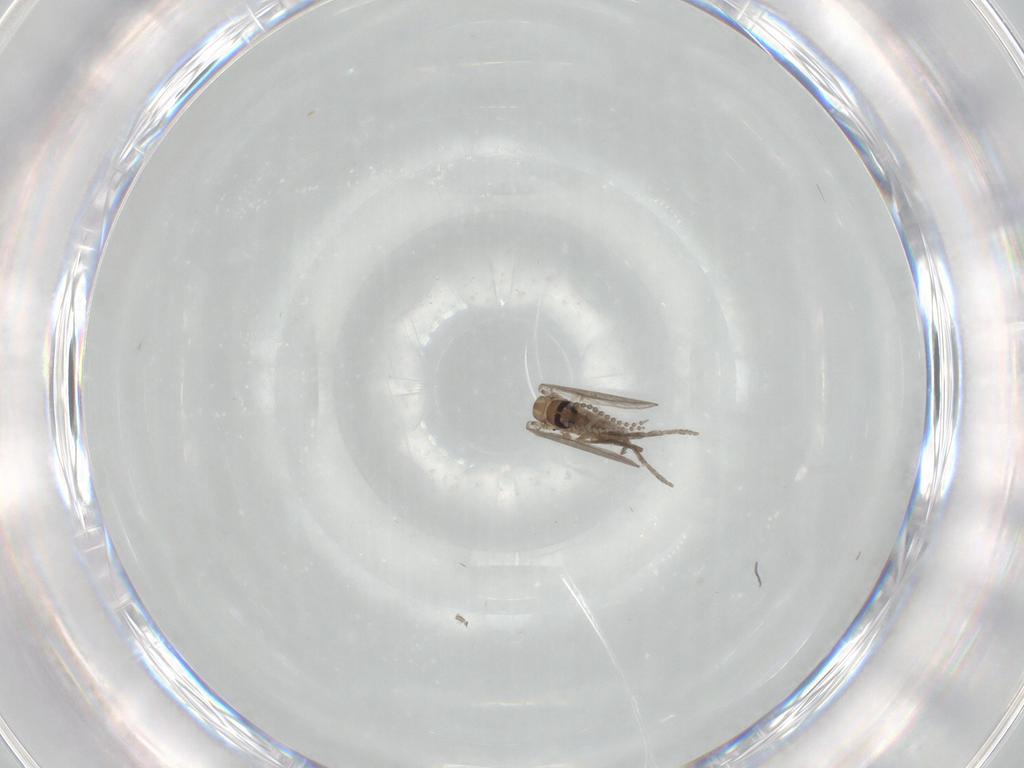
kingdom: Animalia
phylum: Arthropoda
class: Insecta
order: Diptera
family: Psychodidae
